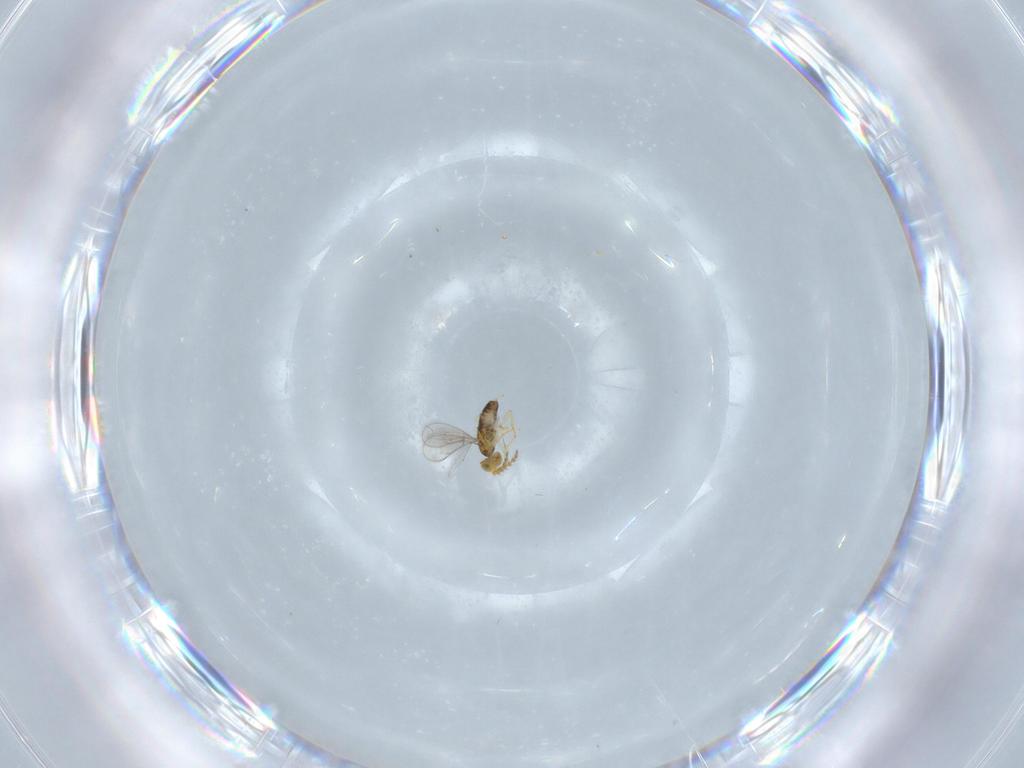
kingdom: Animalia
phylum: Arthropoda
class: Insecta
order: Hymenoptera
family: Aphelinidae
